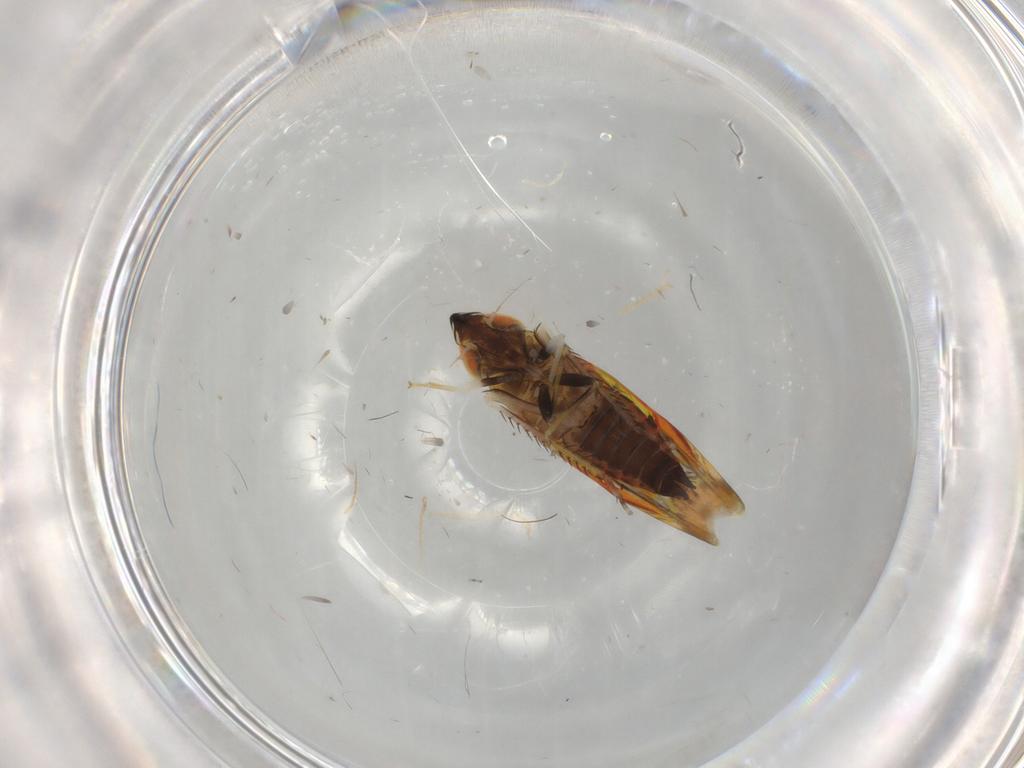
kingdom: Animalia
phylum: Arthropoda
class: Insecta
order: Hemiptera
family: Cicadellidae
